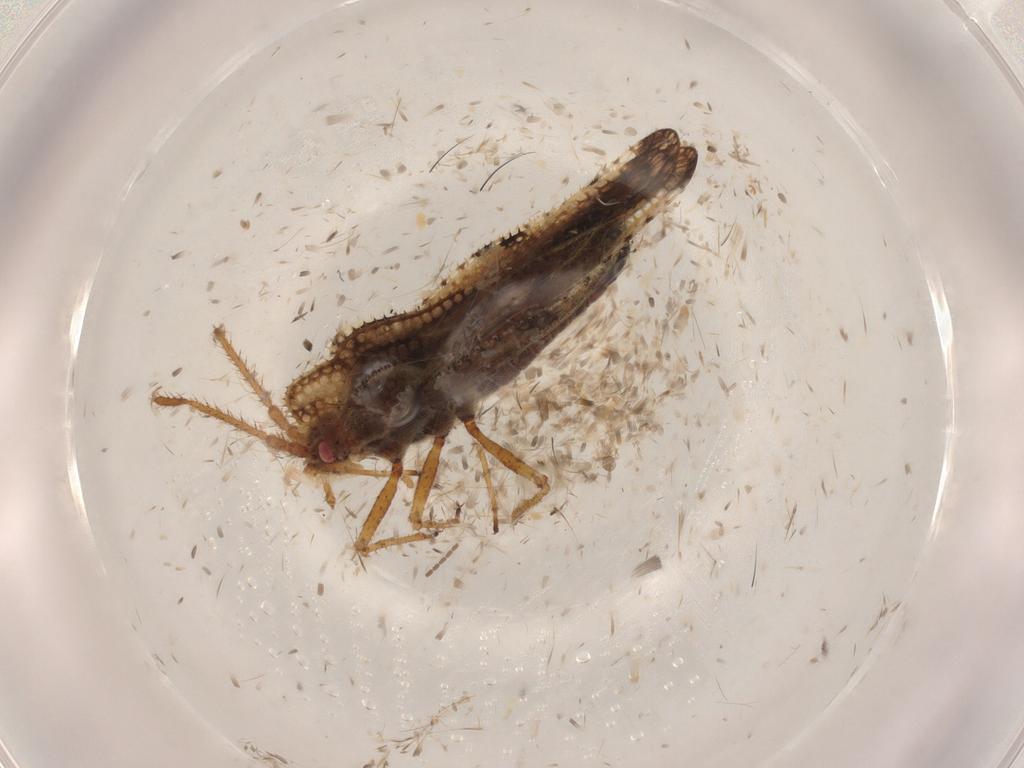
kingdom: Animalia
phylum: Arthropoda
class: Insecta
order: Hemiptera
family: Tingidae
